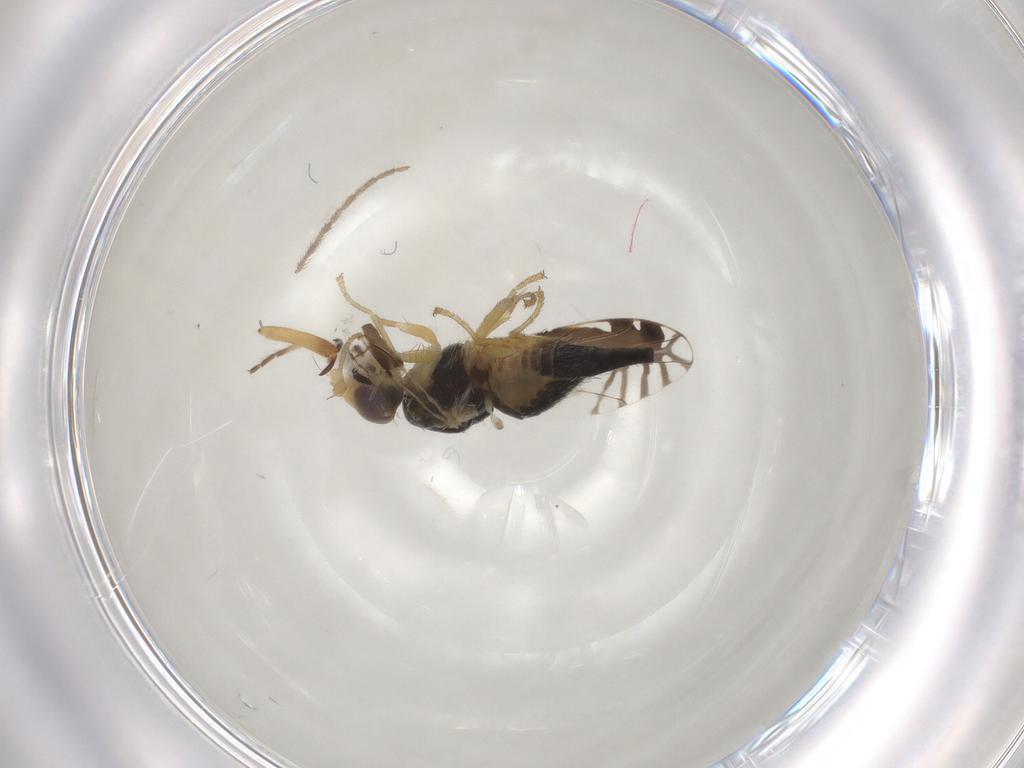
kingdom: Animalia
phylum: Arthropoda
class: Insecta
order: Diptera
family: Tephritidae
